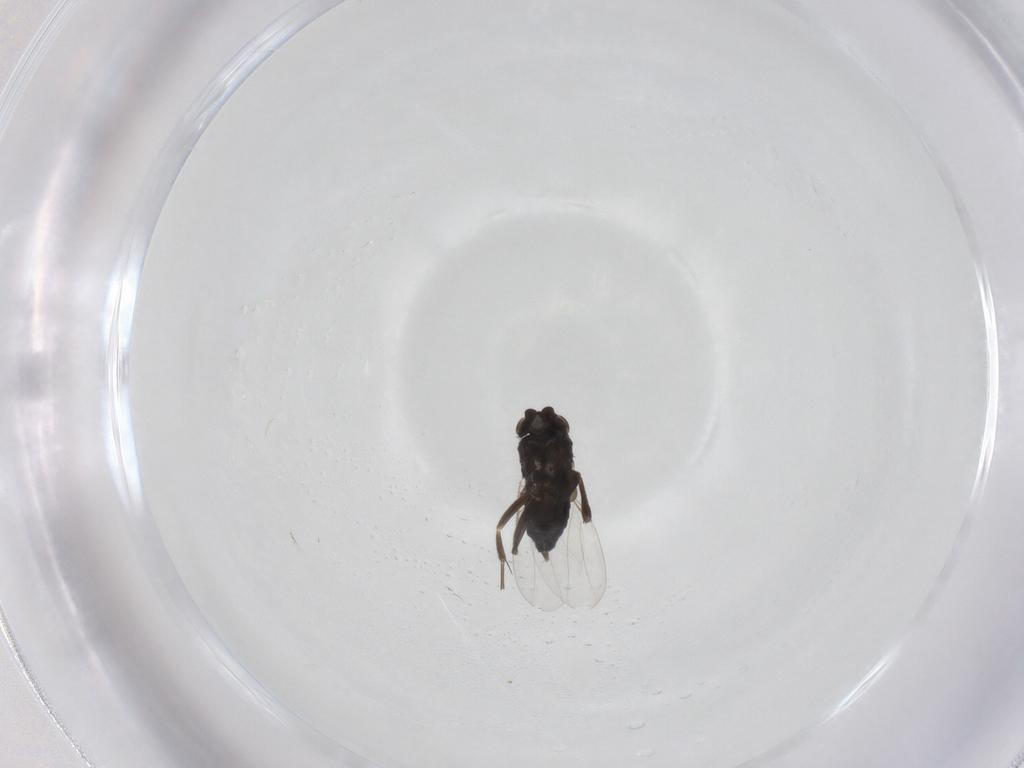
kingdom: Animalia
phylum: Arthropoda
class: Insecta
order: Diptera
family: Phoridae
